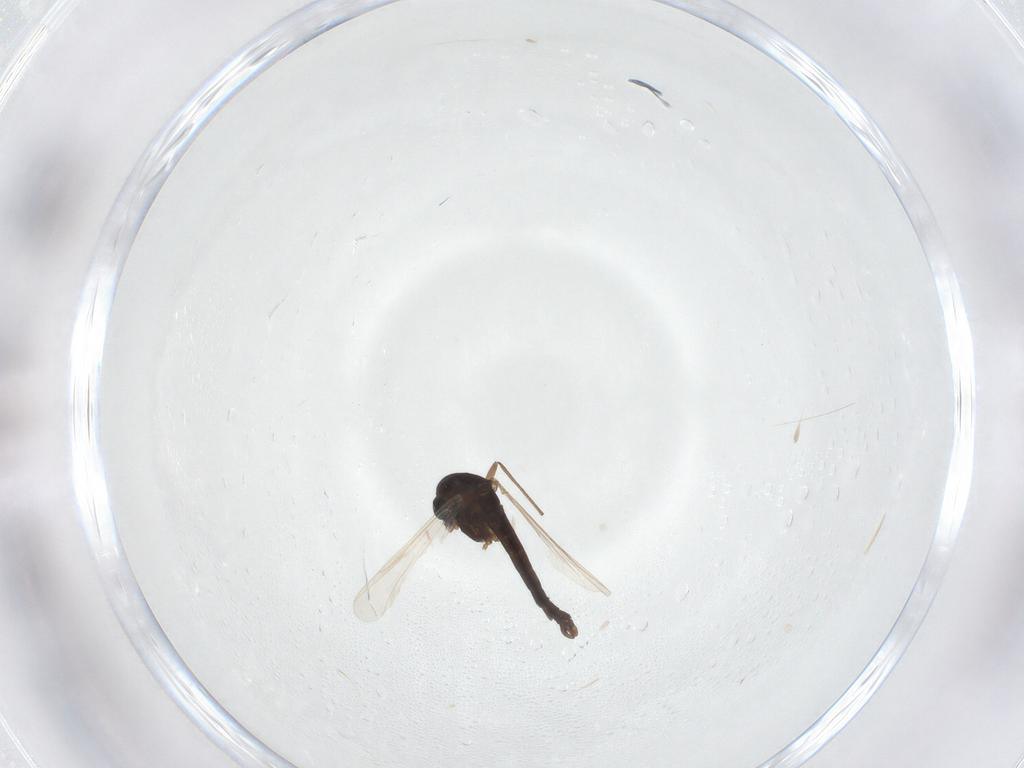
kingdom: Animalia
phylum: Arthropoda
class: Insecta
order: Diptera
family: Chironomidae
